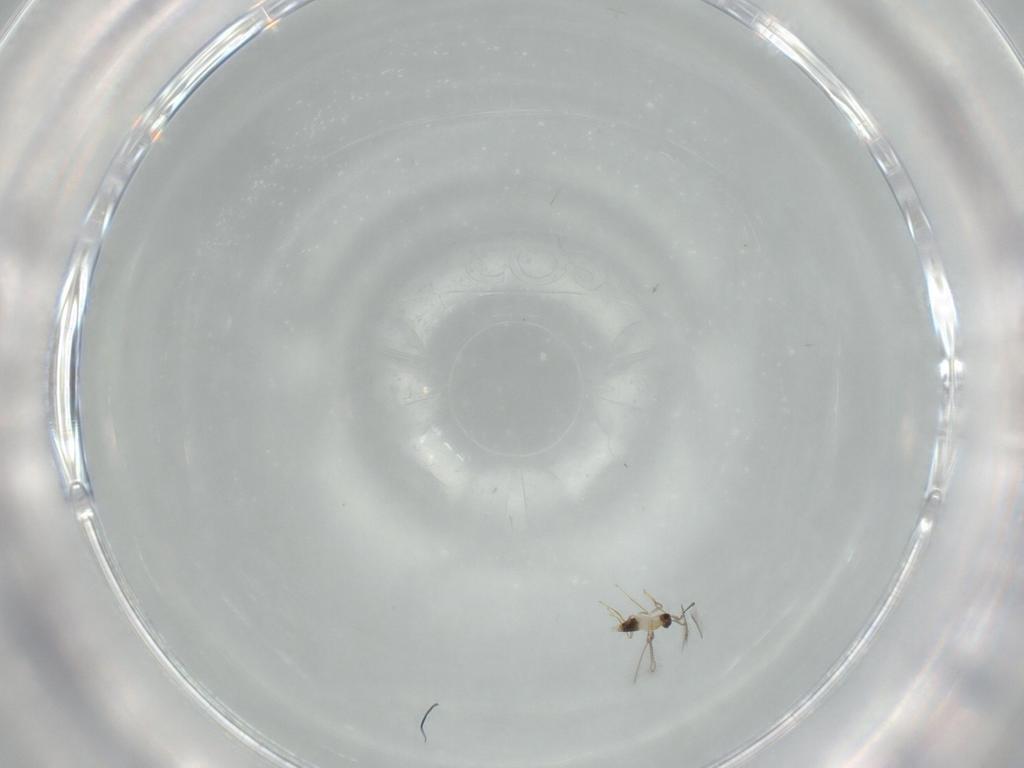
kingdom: Animalia
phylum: Arthropoda
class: Insecta
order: Hymenoptera
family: Mymaridae
